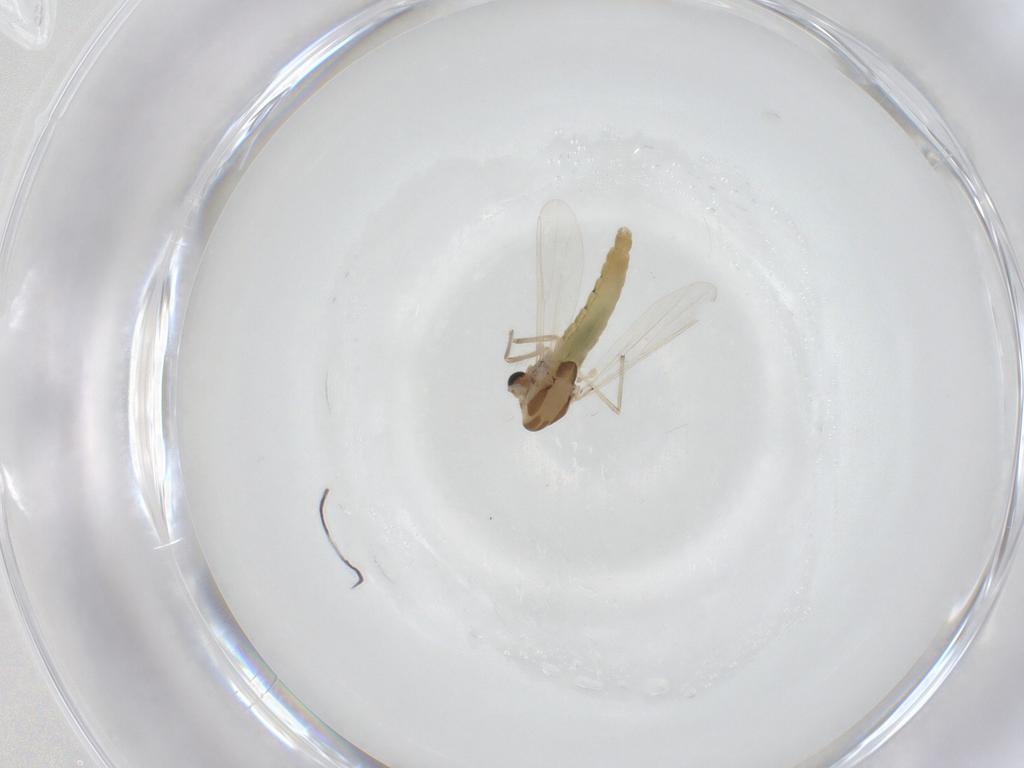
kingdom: Animalia
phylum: Arthropoda
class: Insecta
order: Diptera
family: Chironomidae
